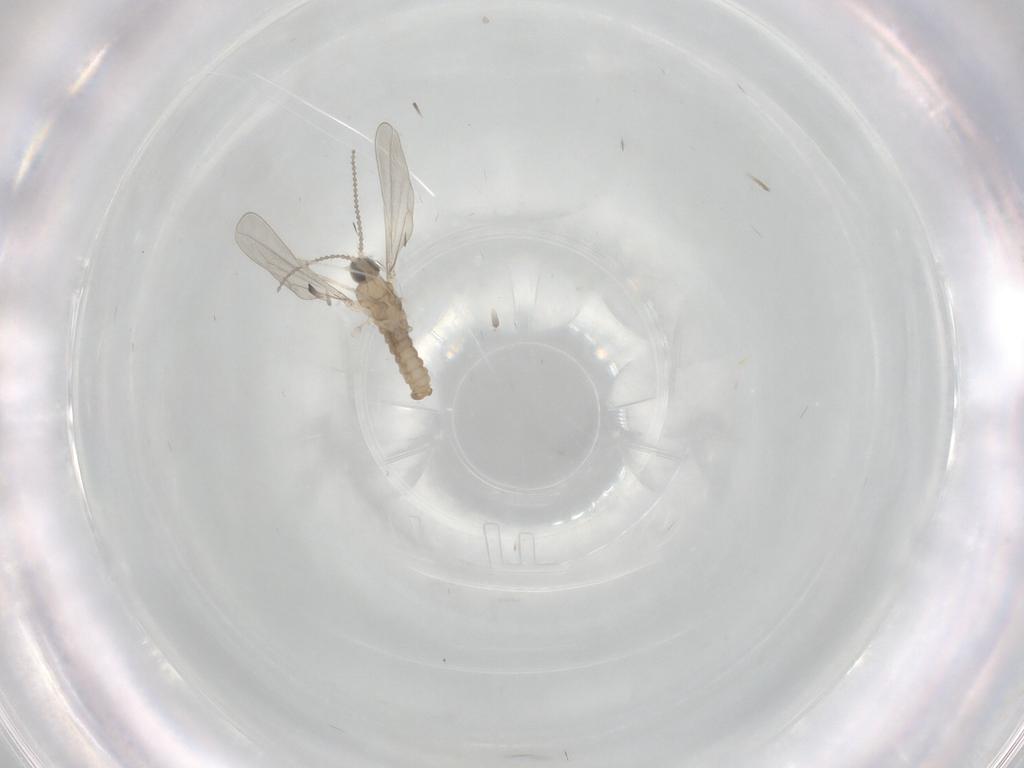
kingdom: Animalia
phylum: Arthropoda
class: Insecta
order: Diptera
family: Cecidomyiidae
